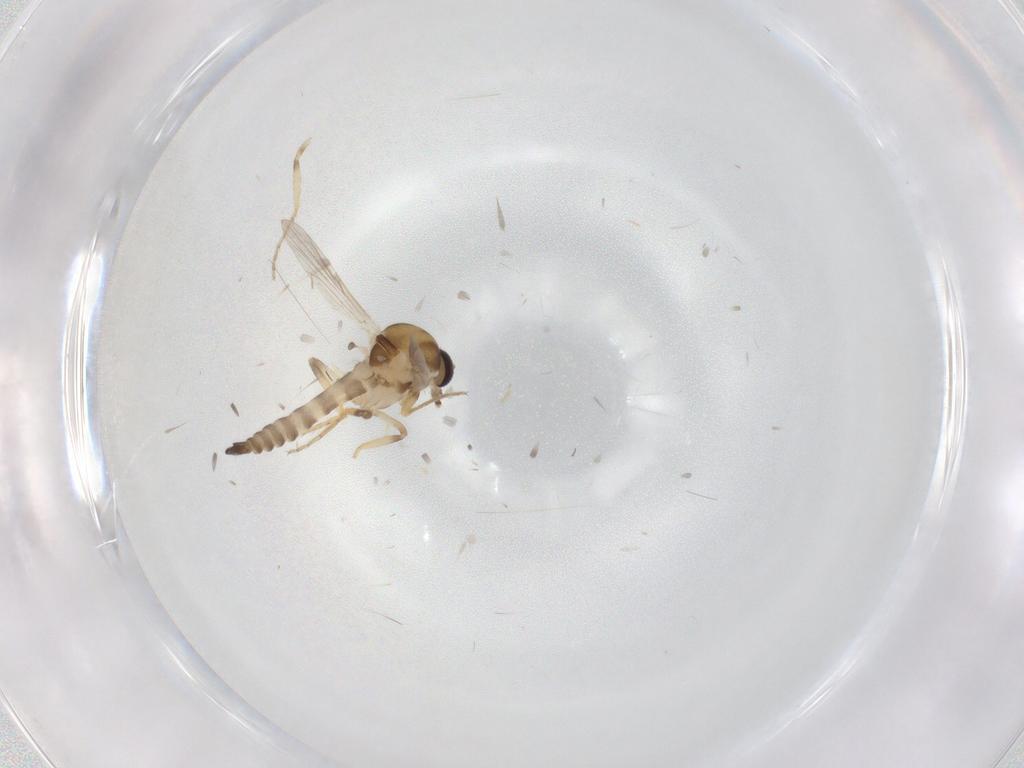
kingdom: Animalia
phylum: Arthropoda
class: Insecta
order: Diptera
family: Ceratopogonidae
